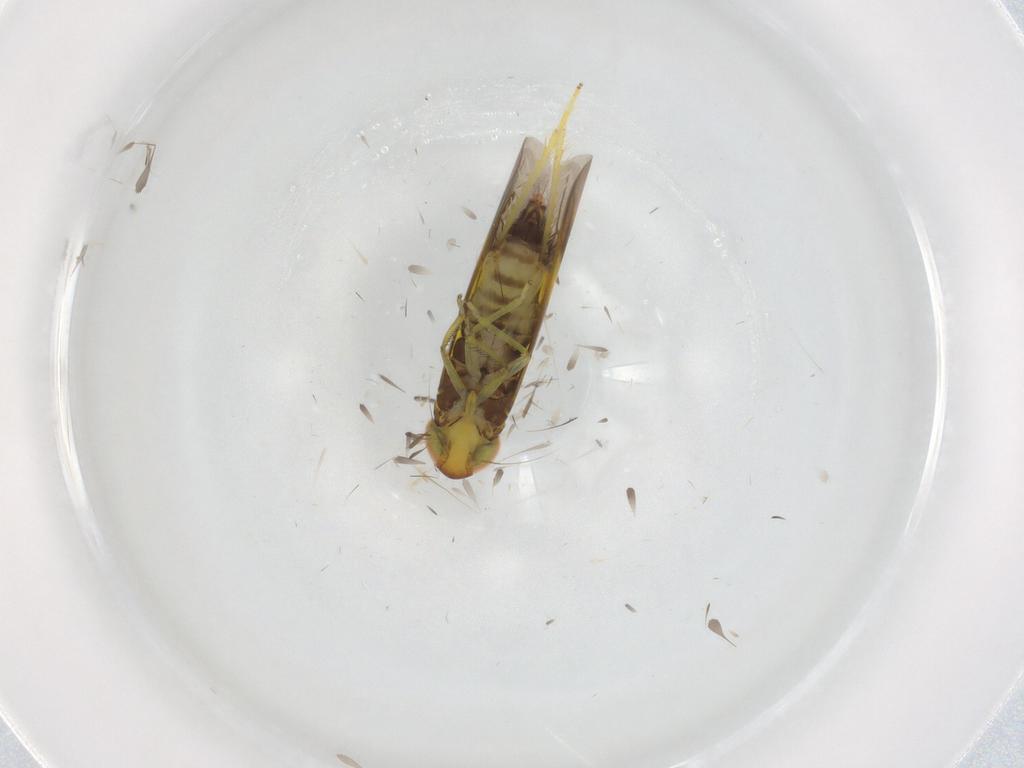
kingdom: Animalia
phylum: Arthropoda
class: Insecta
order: Hemiptera
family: Cicadellidae
